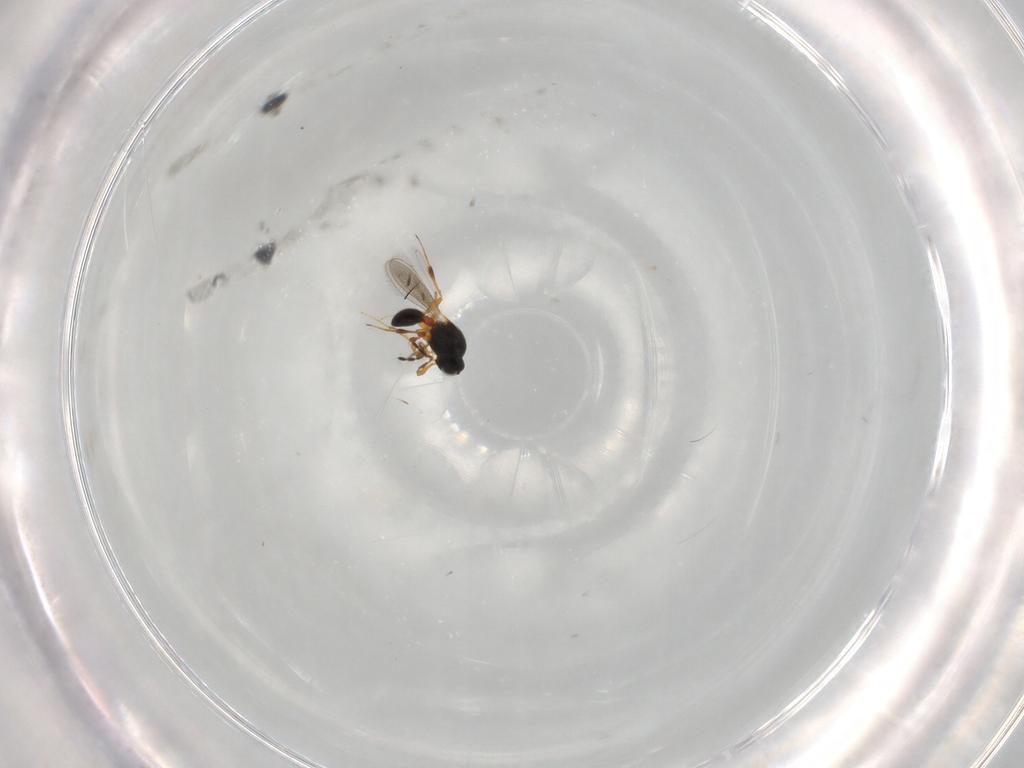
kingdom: Animalia
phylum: Arthropoda
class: Insecta
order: Hymenoptera
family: Platygastridae
